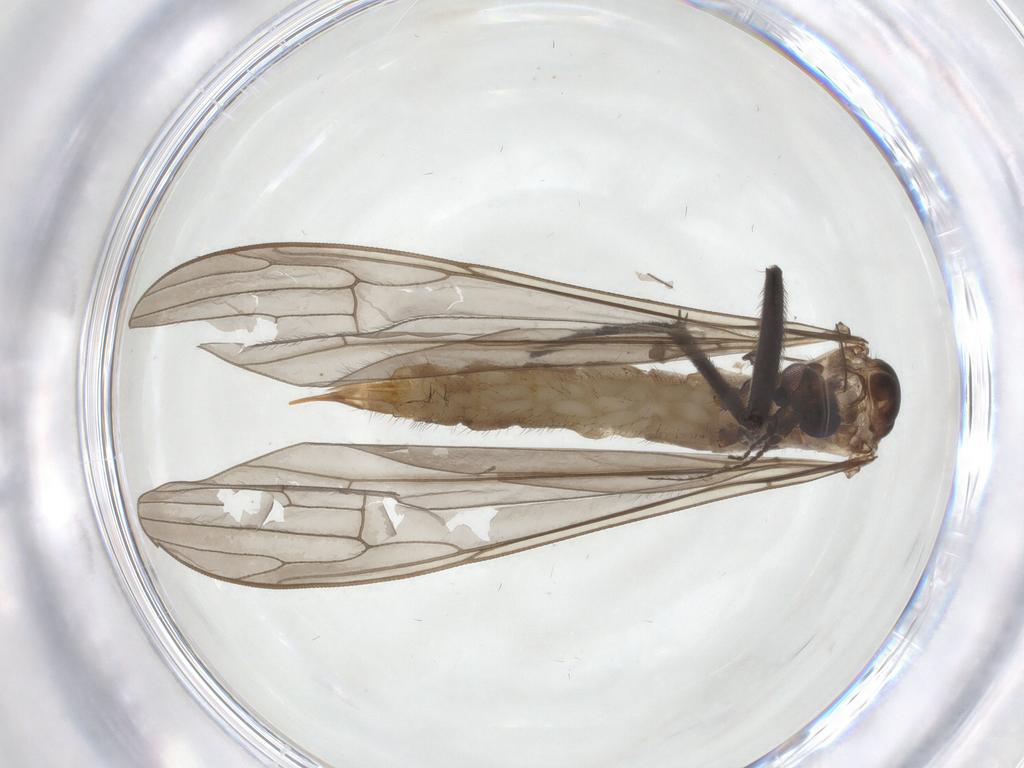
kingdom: Animalia
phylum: Arthropoda
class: Insecta
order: Diptera
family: Limoniidae
